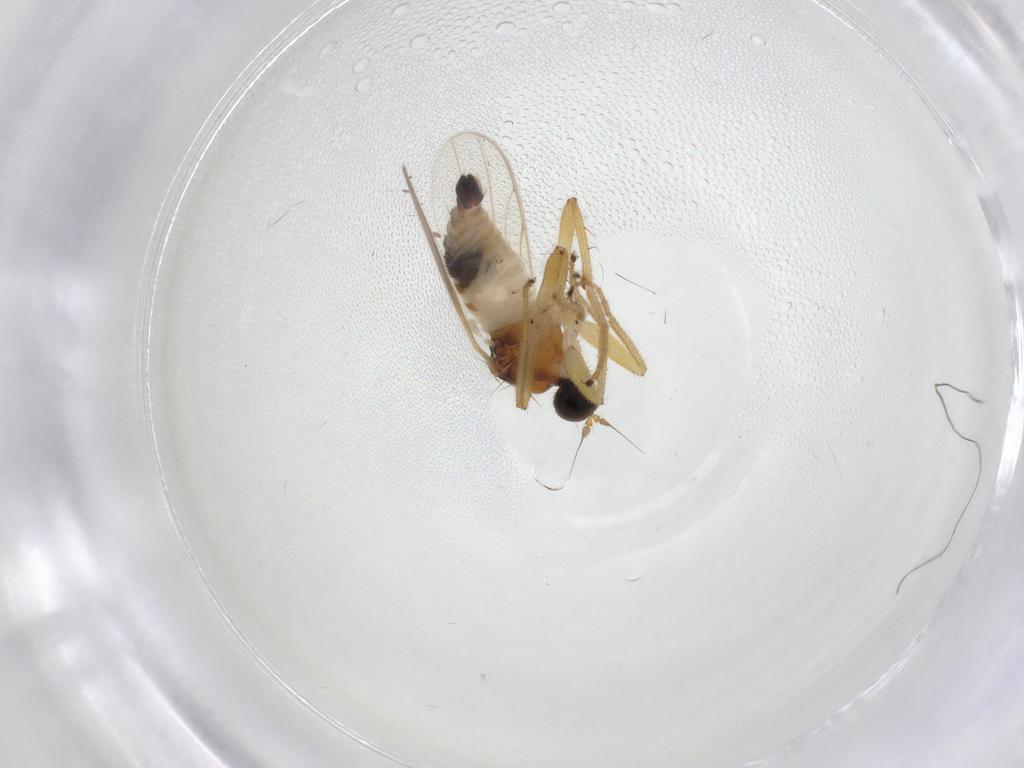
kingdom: Animalia
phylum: Arthropoda
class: Insecta
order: Diptera
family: Hybotidae
